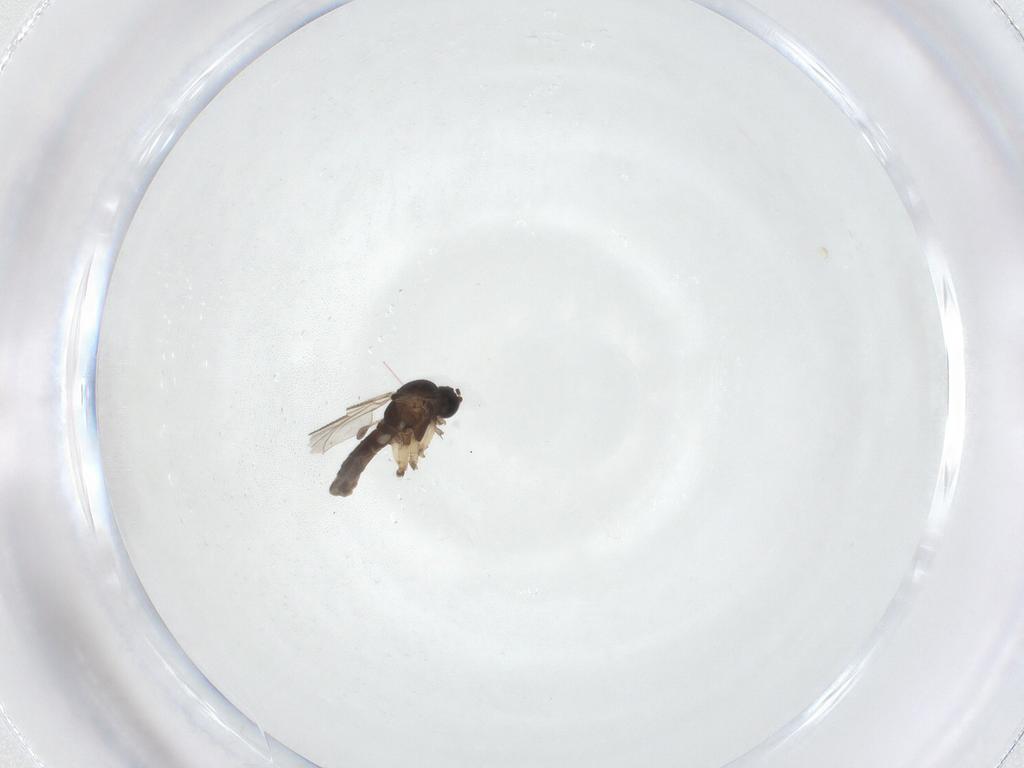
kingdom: Animalia
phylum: Arthropoda
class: Insecta
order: Diptera
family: Sciaridae
